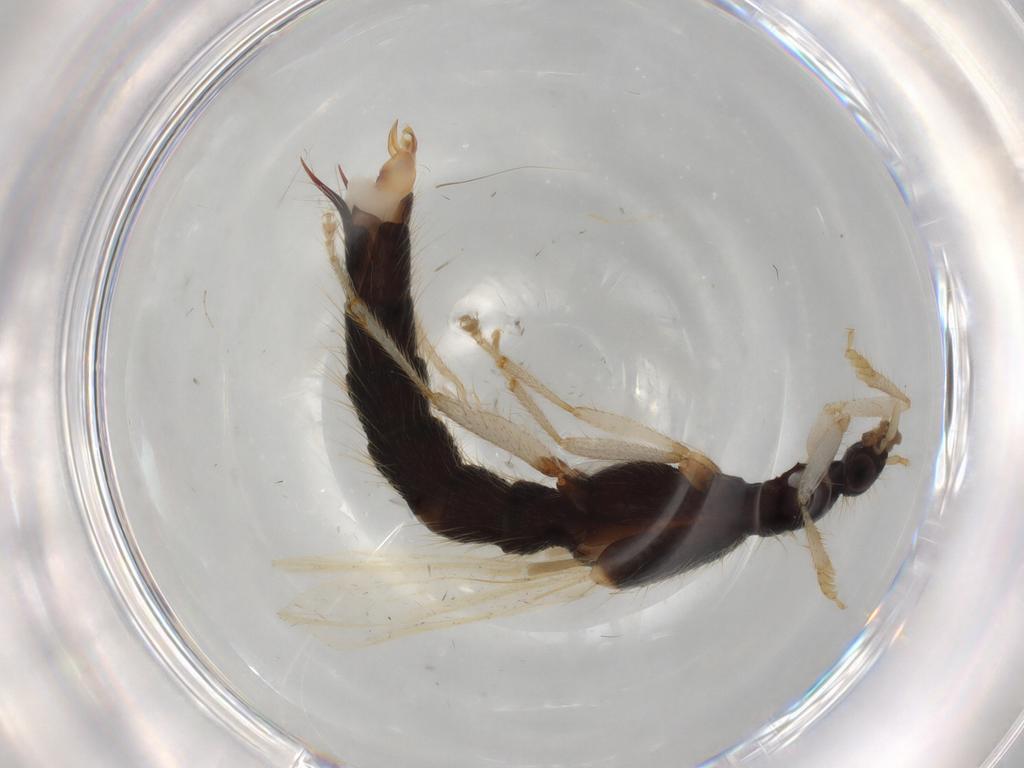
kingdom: Animalia
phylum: Arthropoda
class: Insecta
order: Coleoptera
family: Staphylinidae
